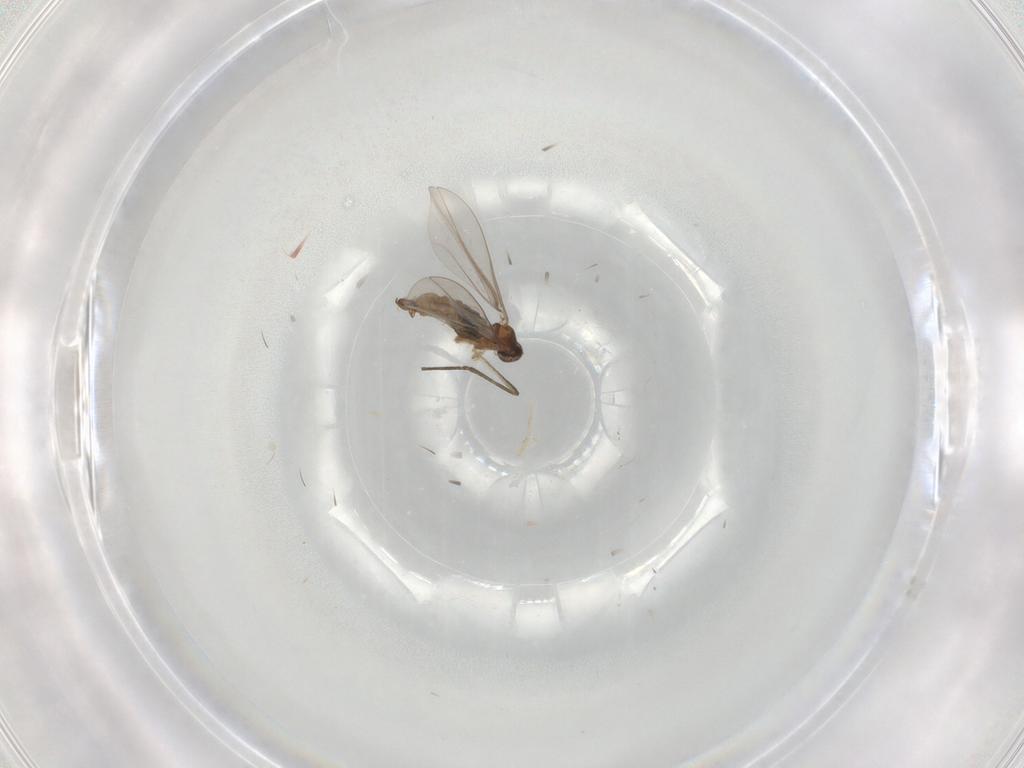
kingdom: Animalia
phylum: Arthropoda
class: Insecta
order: Diptera
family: Cecidomyiidae
